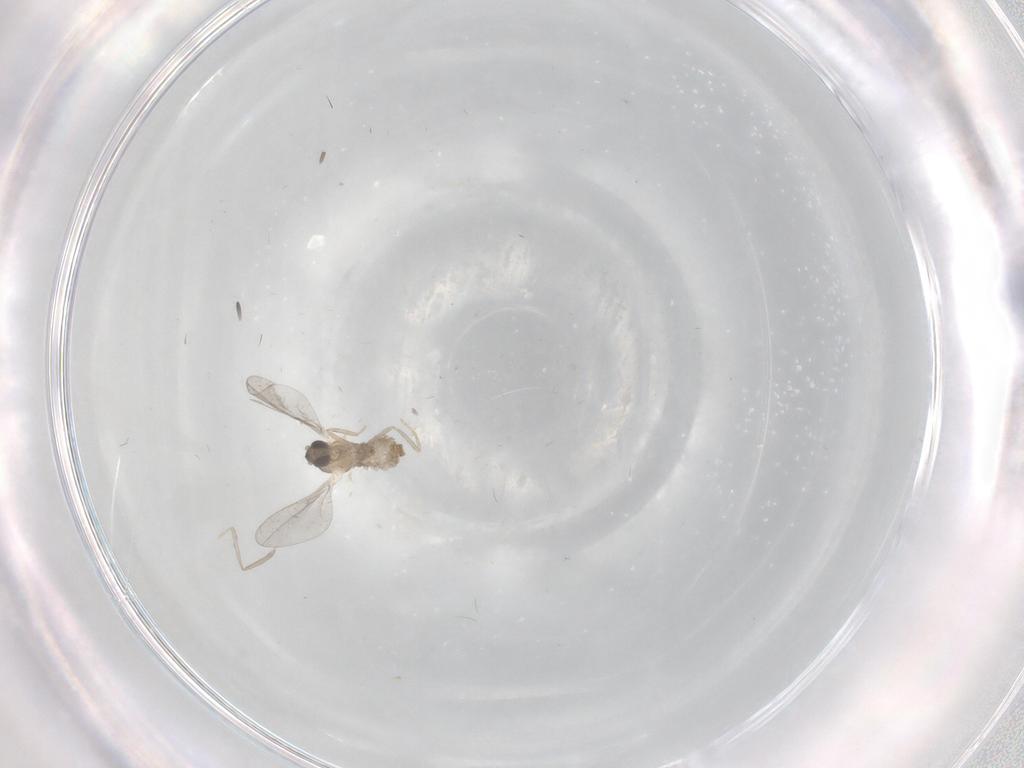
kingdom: Animalia
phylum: Arthropoda
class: Insecta
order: Diptera
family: Cecidomyiidae
